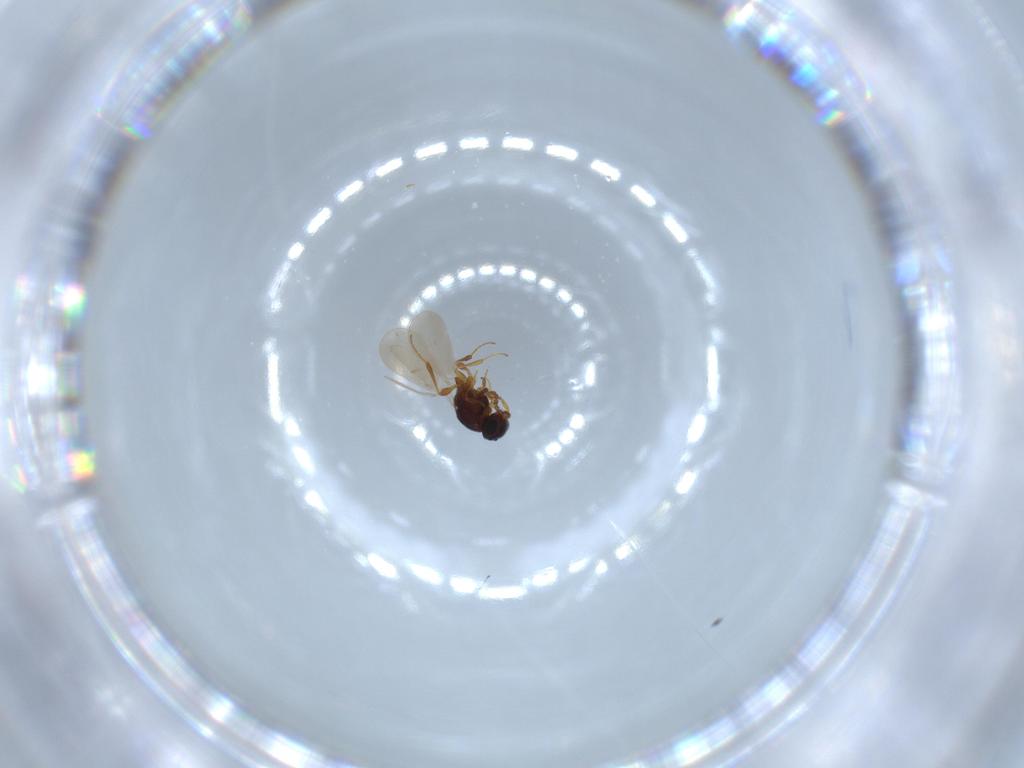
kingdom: Animalia
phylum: Arthropoda
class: Insecta
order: Hymenoptera
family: Platygastridae
